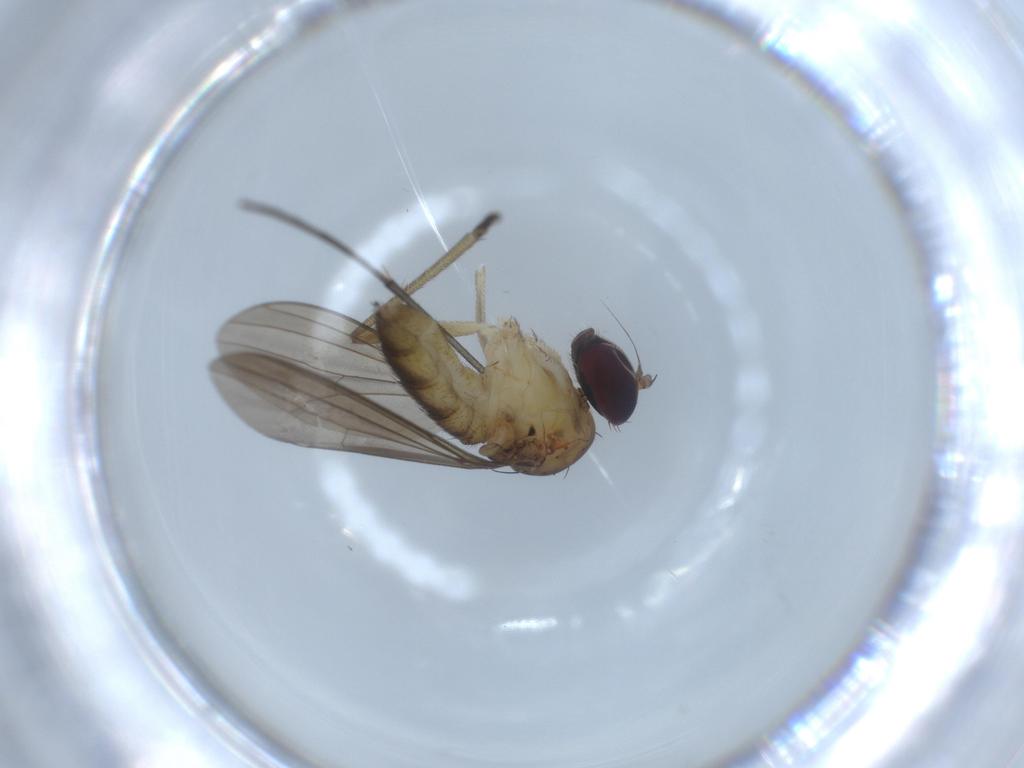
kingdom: Animalia
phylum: Arthropoda
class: Insecta
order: Diptera
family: Dolichopodidae
